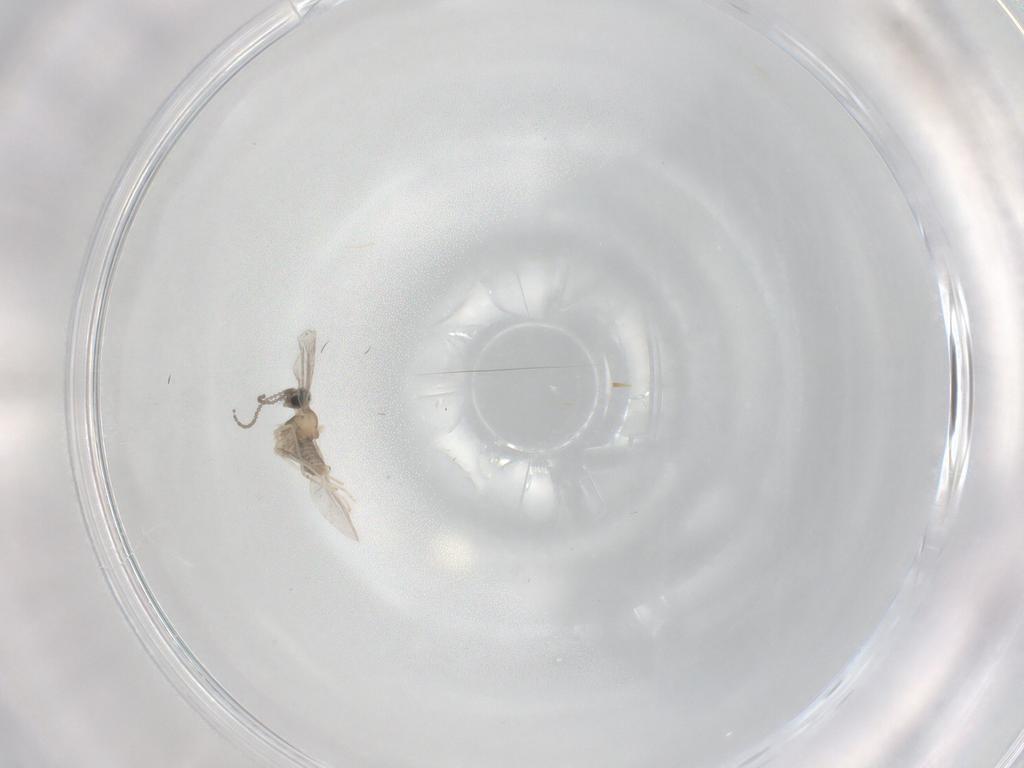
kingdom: Animalia
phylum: Arthropoda
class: Insecta
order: Diptera
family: Cecidomyiidae
